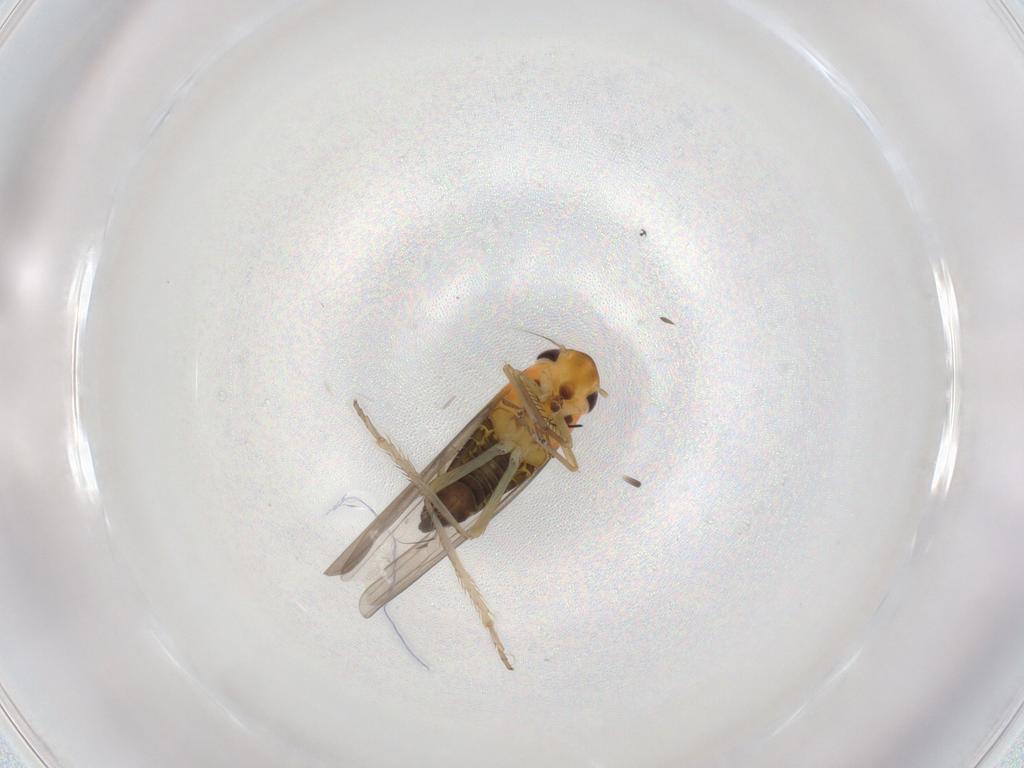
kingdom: Animalia
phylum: Arthropoda
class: Insecta
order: Hemiptera
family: Cicadellidae
